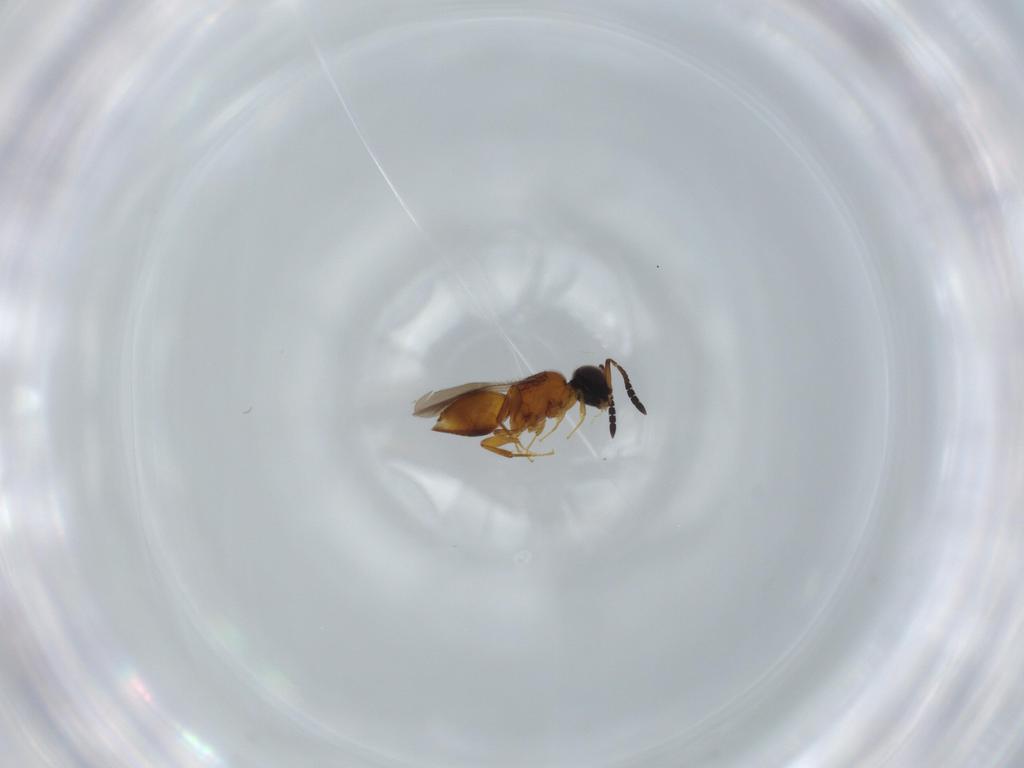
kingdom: Animalia
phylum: Arthropoda
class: Insecta
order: Hymenoptera
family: Ceraphronidae
